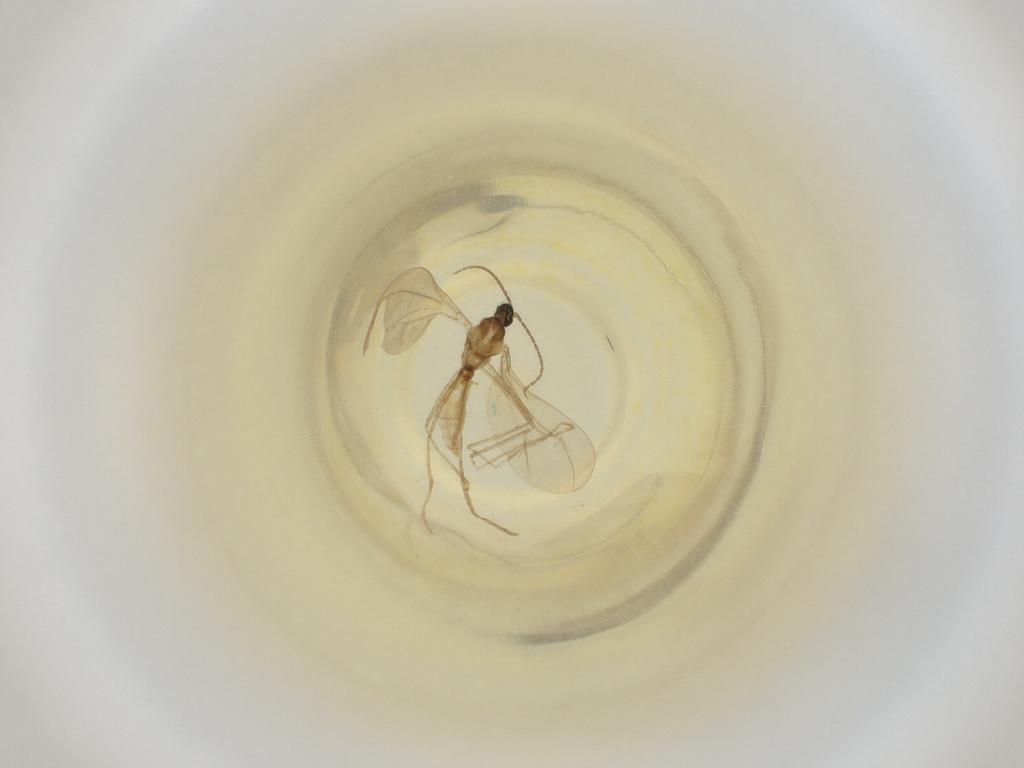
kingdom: Animalia
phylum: Arthropoda
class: Insecta
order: Diptera
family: Cecidomyiidae
